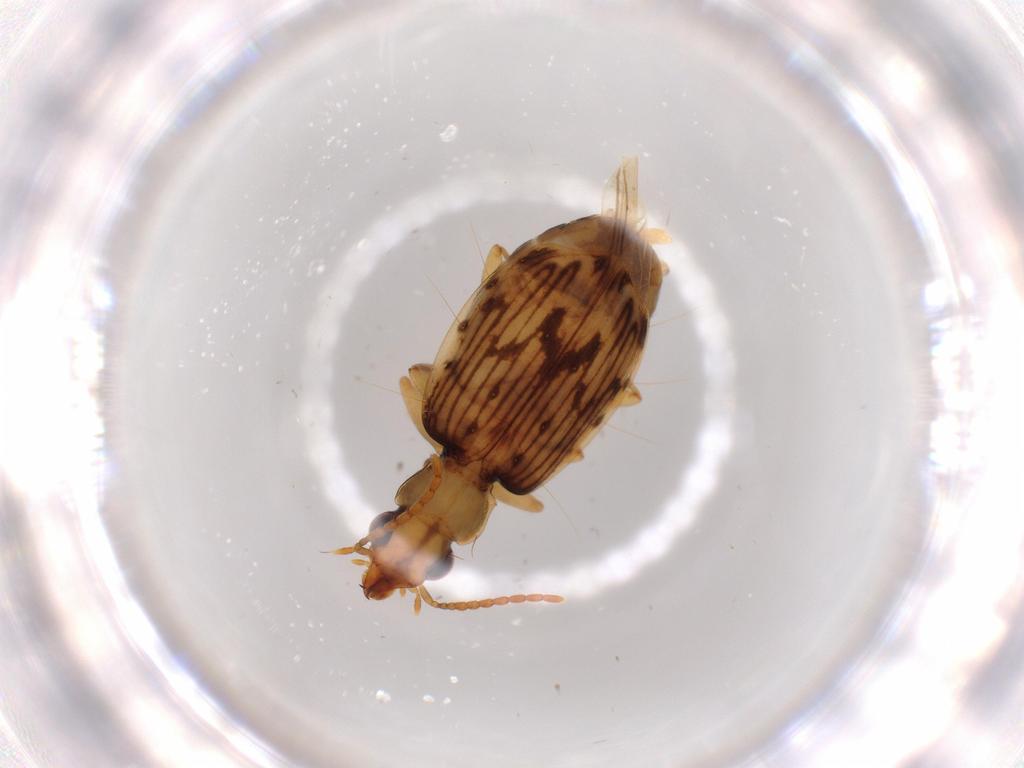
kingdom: Animalia
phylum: Arthropoda
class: Insecta
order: Coleoptera
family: Carabidae
